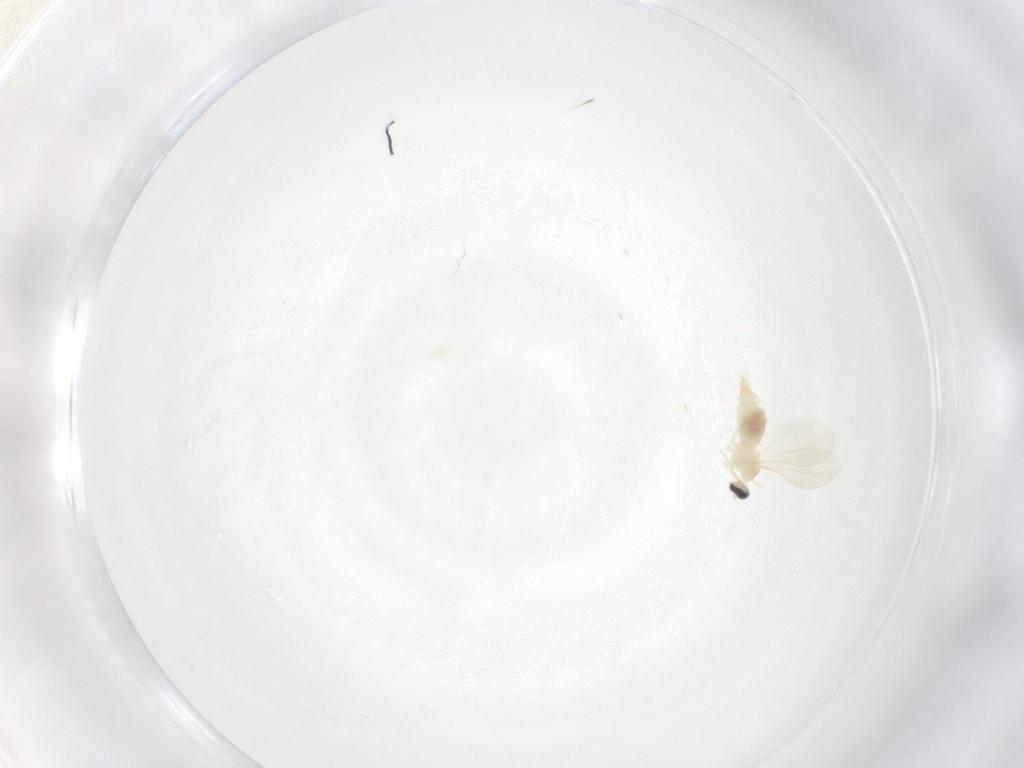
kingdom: Animalia
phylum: Arthropoda
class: Insecta
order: Diptera
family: Cecidomyiidae
